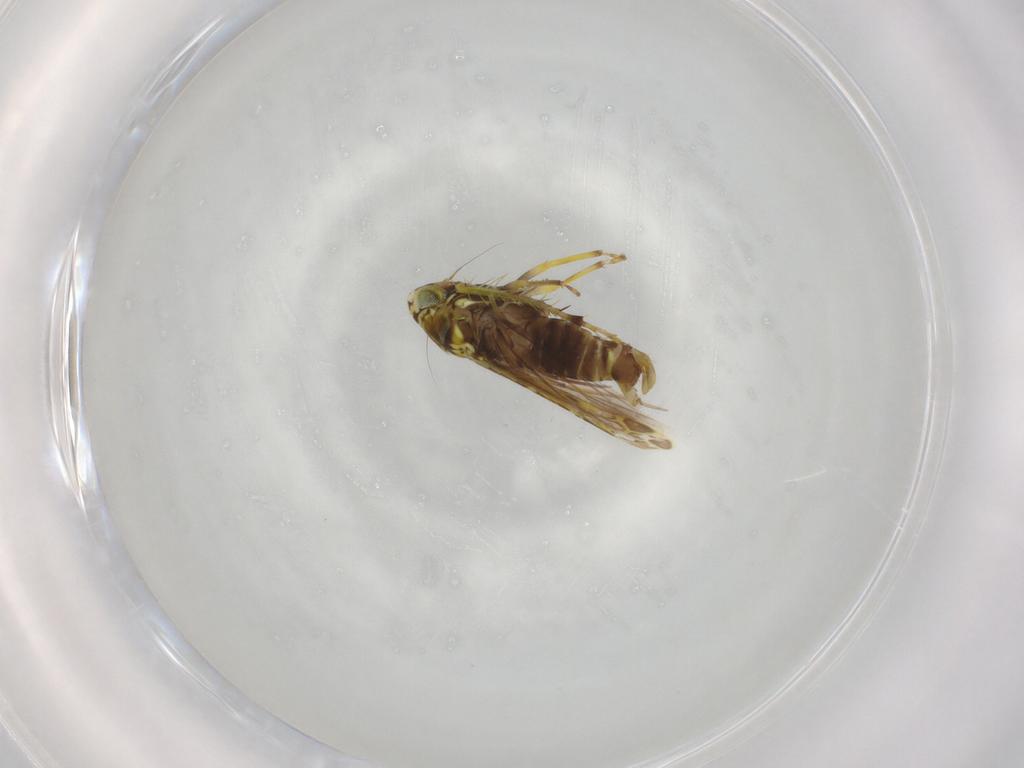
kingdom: Animalia
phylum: Arthropoda
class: Insecta
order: Hemiptera
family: Cicadellidae
